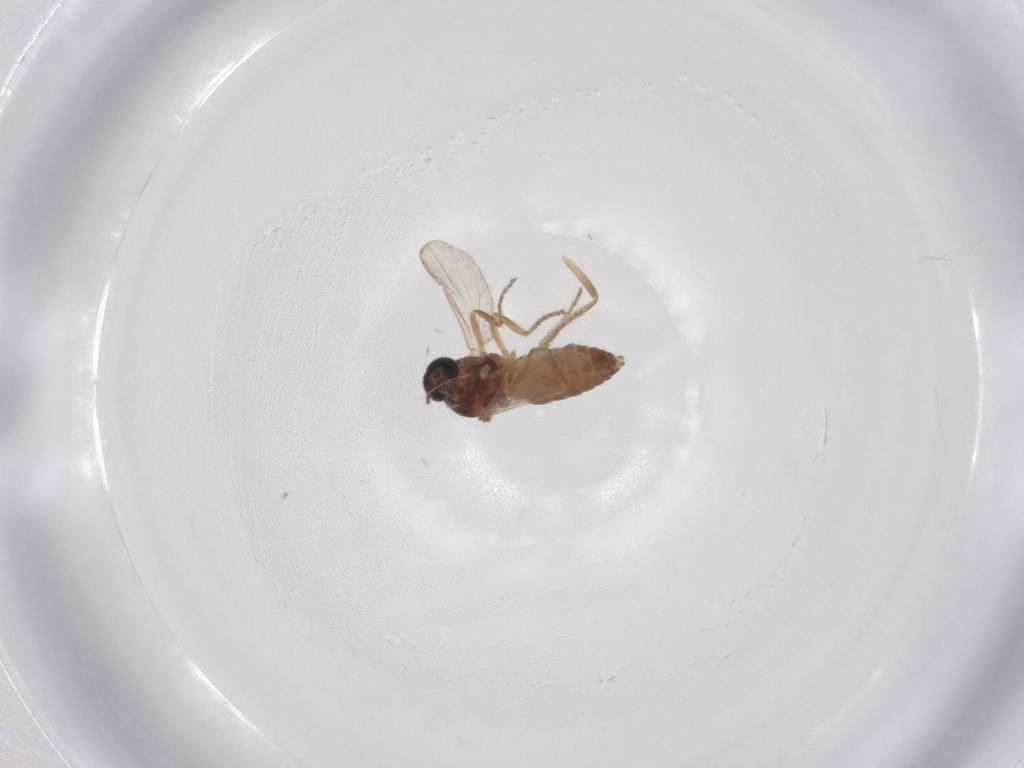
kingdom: Animalia
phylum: Arthropoda
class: Insecta
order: Diptera
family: Ceratopogonidae
